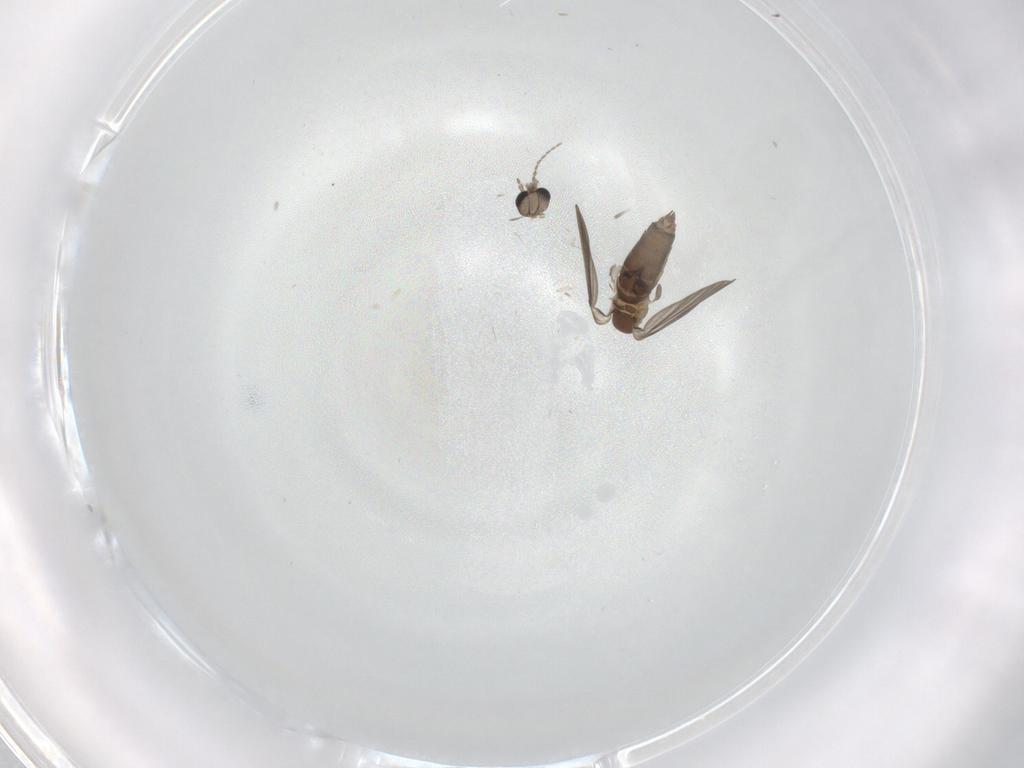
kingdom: Animalia
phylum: Arthropoda
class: Insecta
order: Diptera
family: Psychodidae
